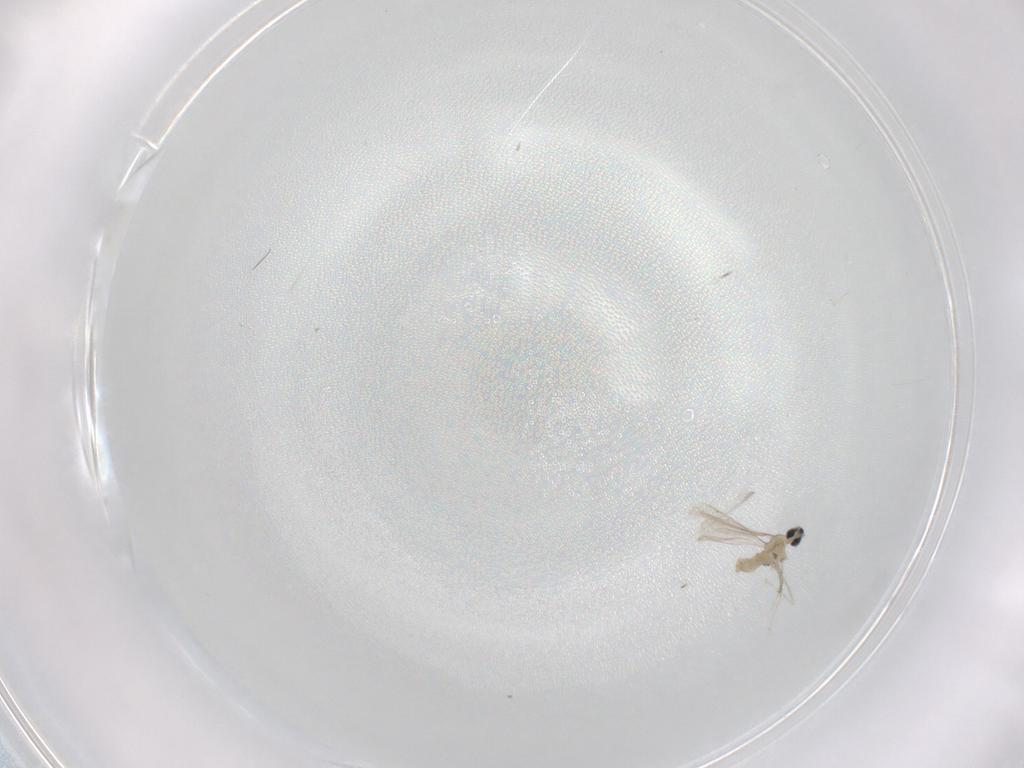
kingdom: Animalia
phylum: Arthropoda
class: Insecta
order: Diptera
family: Cecidomyiidae
